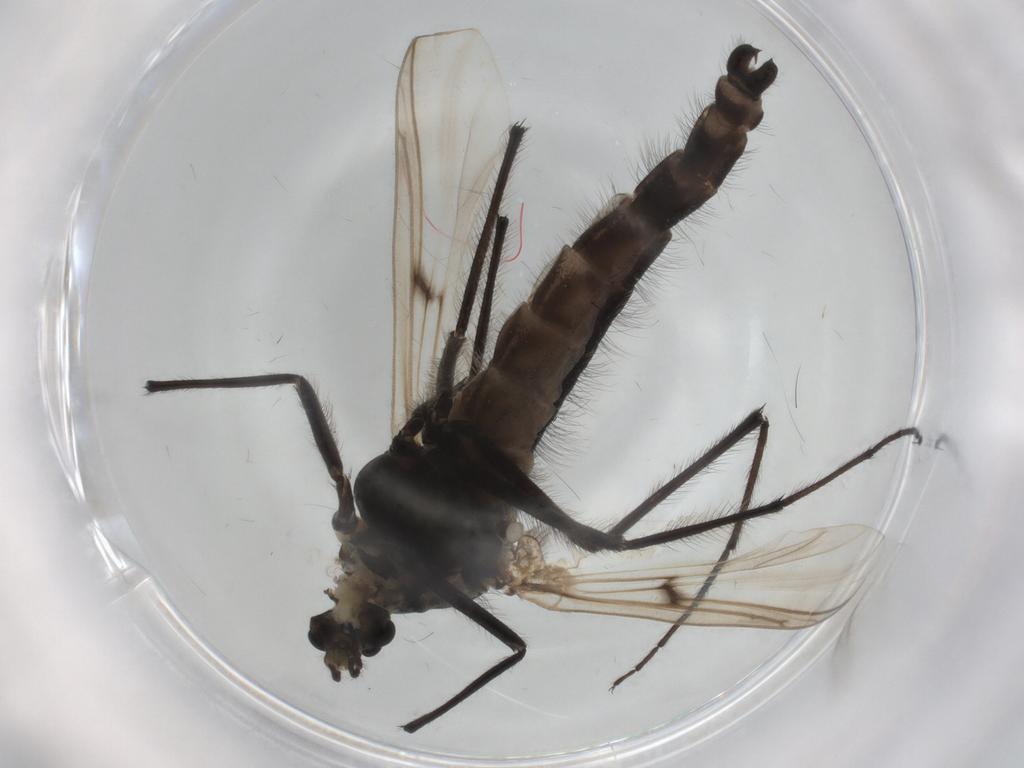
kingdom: Animalia
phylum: Arthropoda
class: Insecta
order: Diptera
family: Chironomidae
